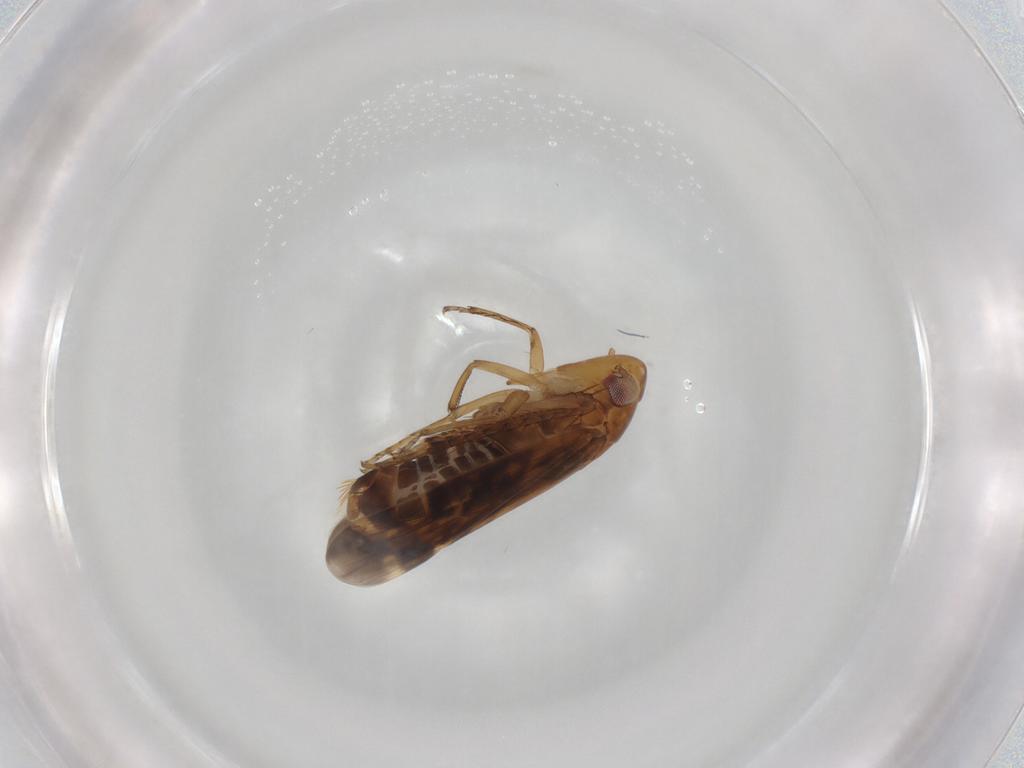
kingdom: Animalia
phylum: Arthropoda
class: Insecta
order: Hemiptera
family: Cicadellidae
